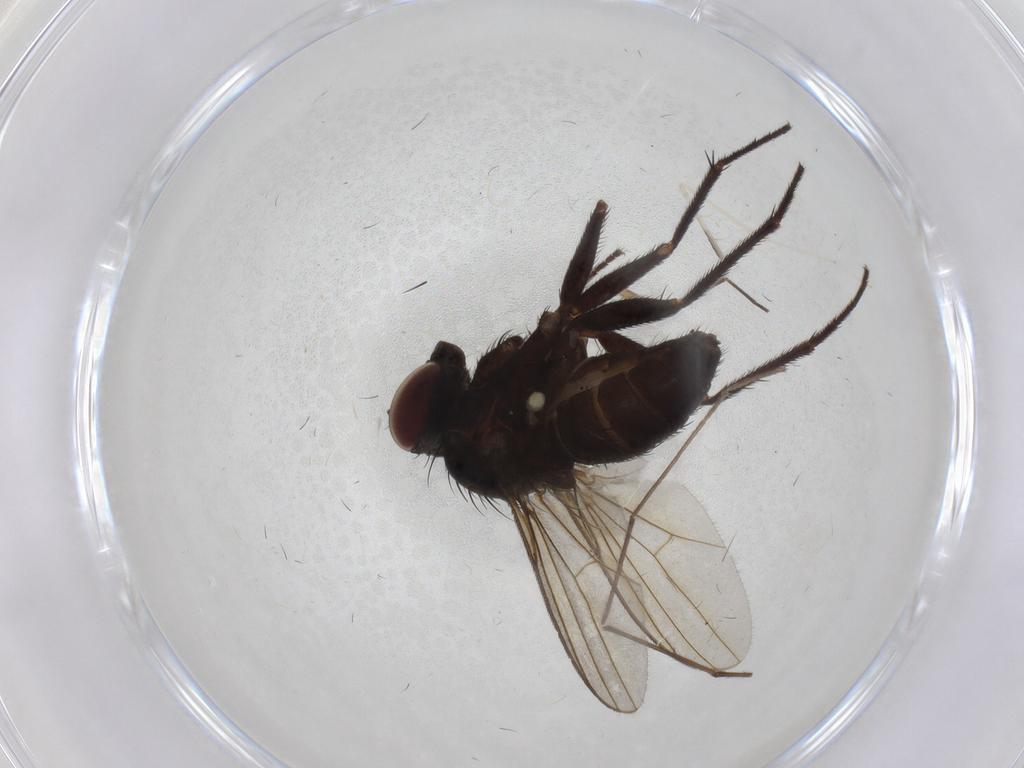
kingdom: Animalia
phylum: Arthropoda
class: Insecta
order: Diptera
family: Dolichopodidae
